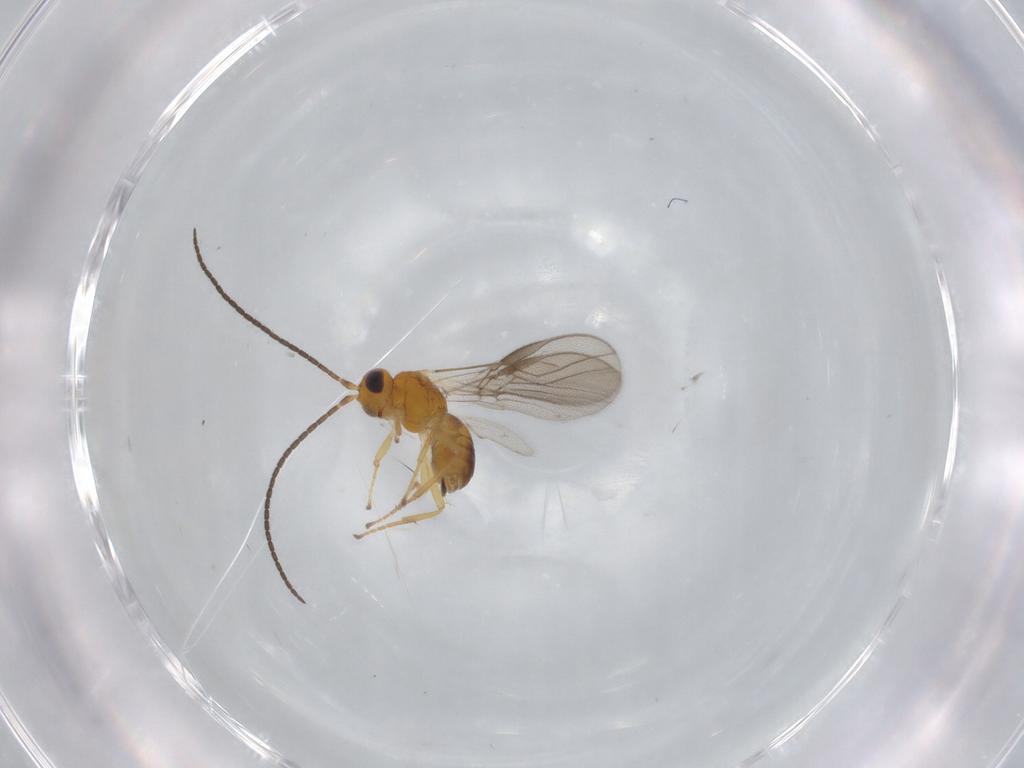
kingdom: Animalia
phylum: Arthropoda
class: Insecta
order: Hymenoptera
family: Braconidae
